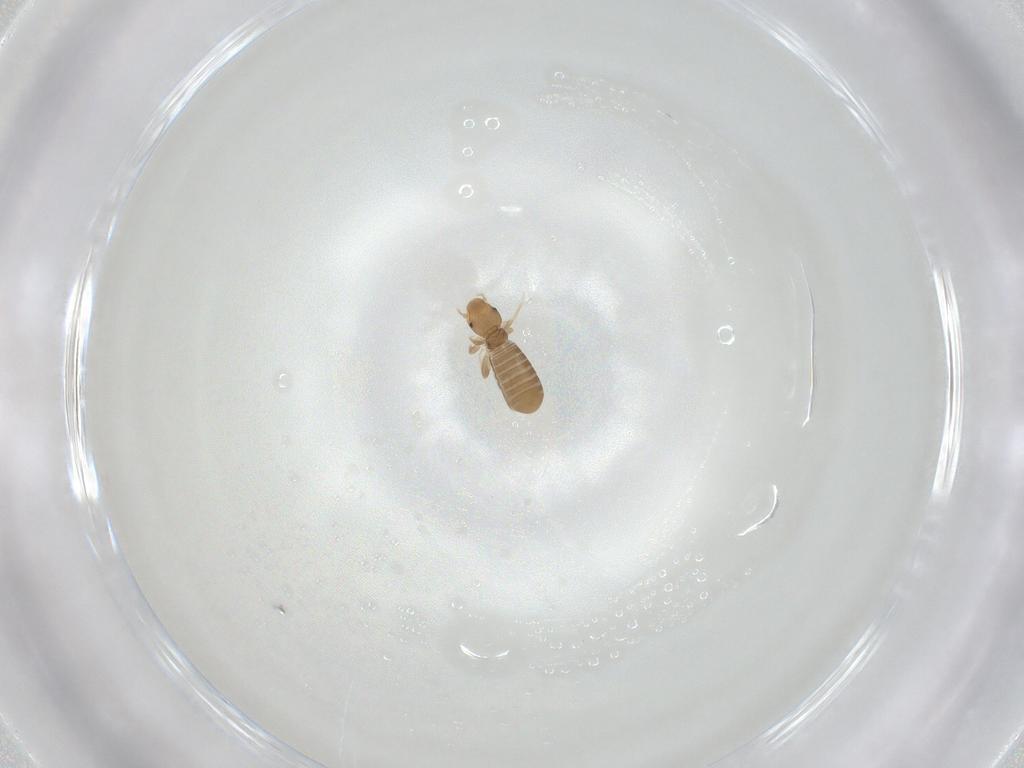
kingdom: Animalia
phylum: Arthropoda
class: Insecta
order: Psocodea
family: Liposcelididae
